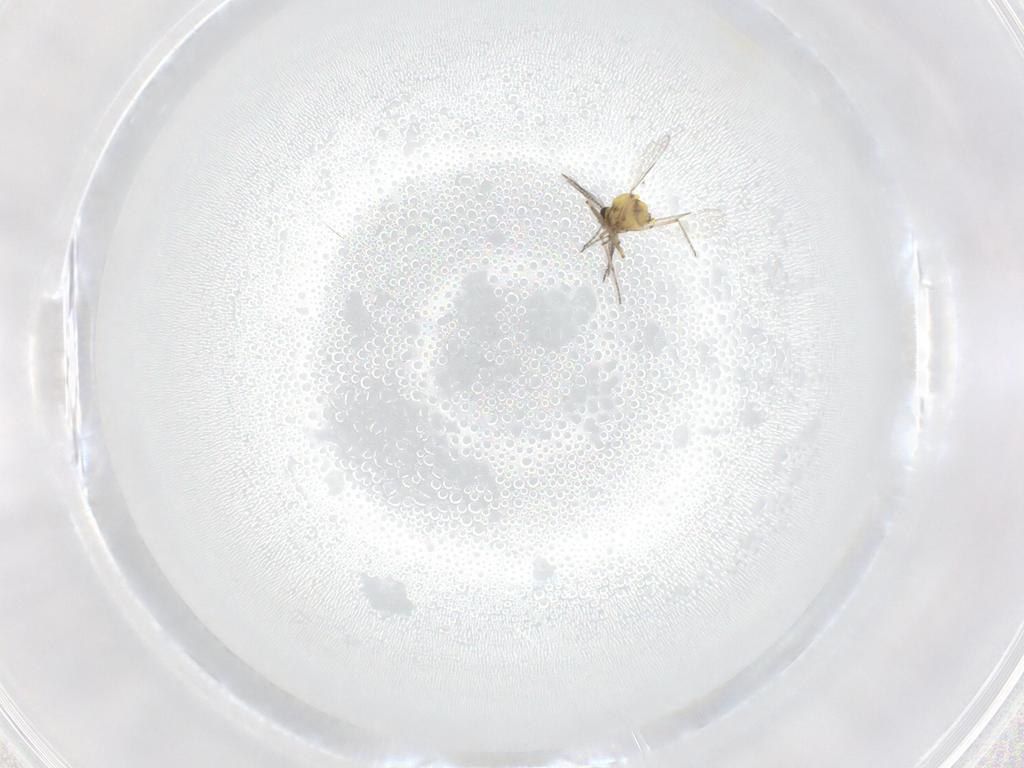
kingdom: Animalia
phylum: Arthropoda
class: Insecta
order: Diptera
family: Ceratopogonidae
